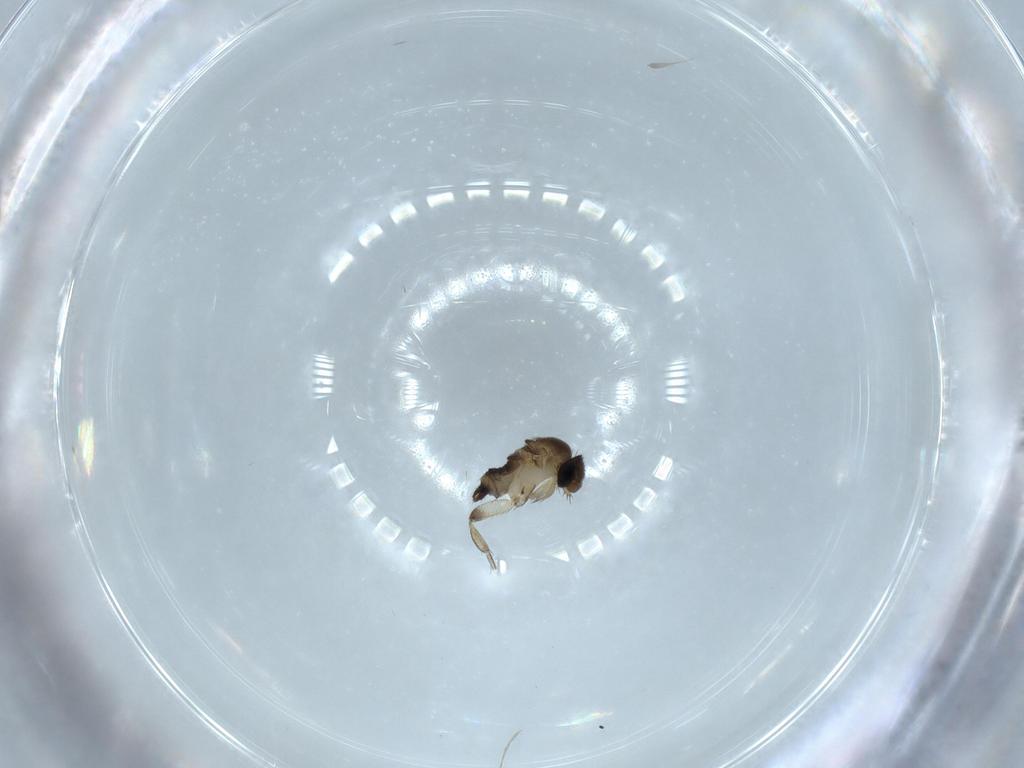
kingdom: Animalia
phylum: Arthropoda
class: Insecta
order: Diptera
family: Phoridae
